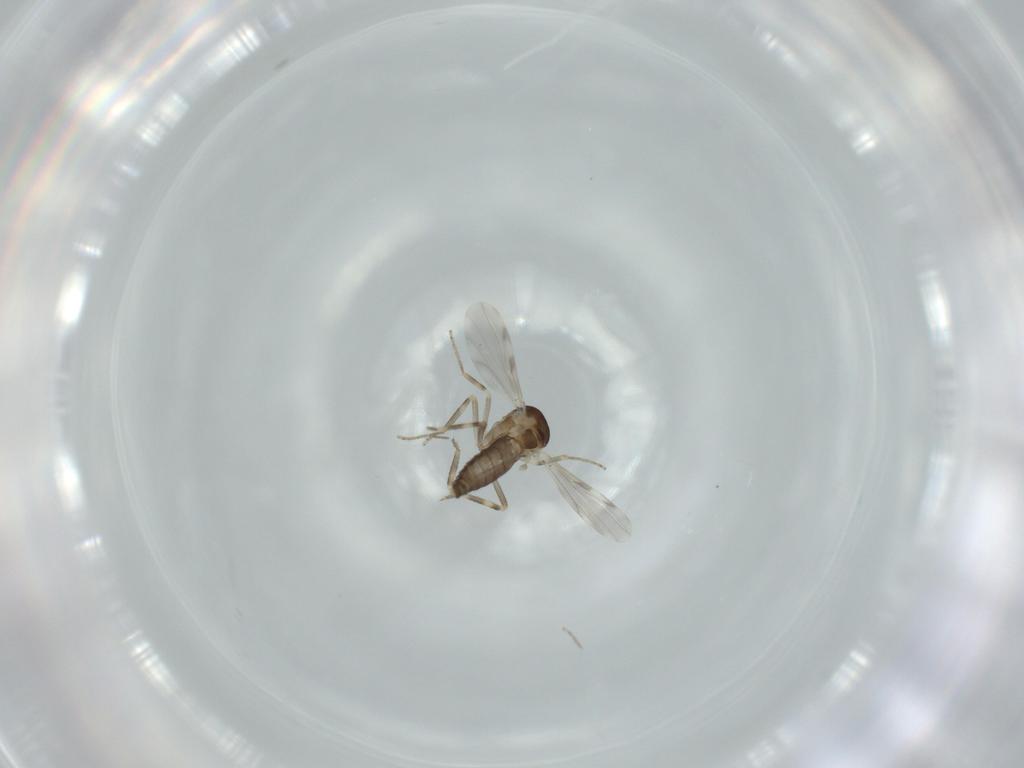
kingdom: Animalia
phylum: Arthropoda
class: Insecta
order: Diptera
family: Ceratopogonidae
